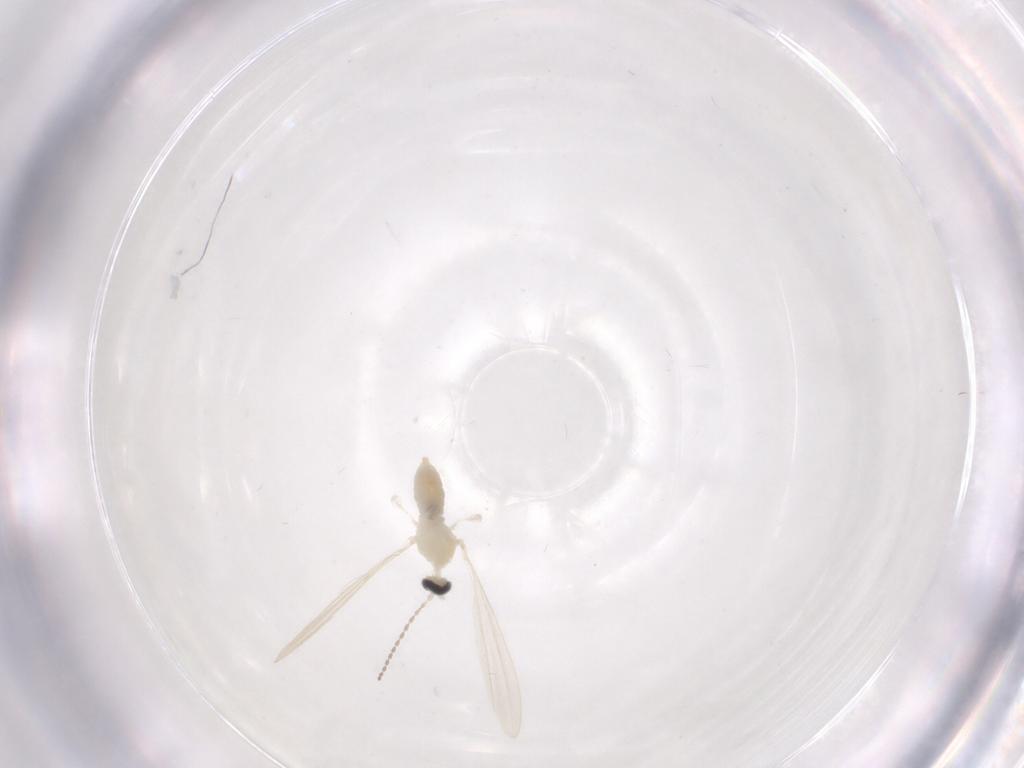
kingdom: Animalia
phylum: Arthropoda
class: Insecta
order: Diptera
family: Cecidomyiidae
